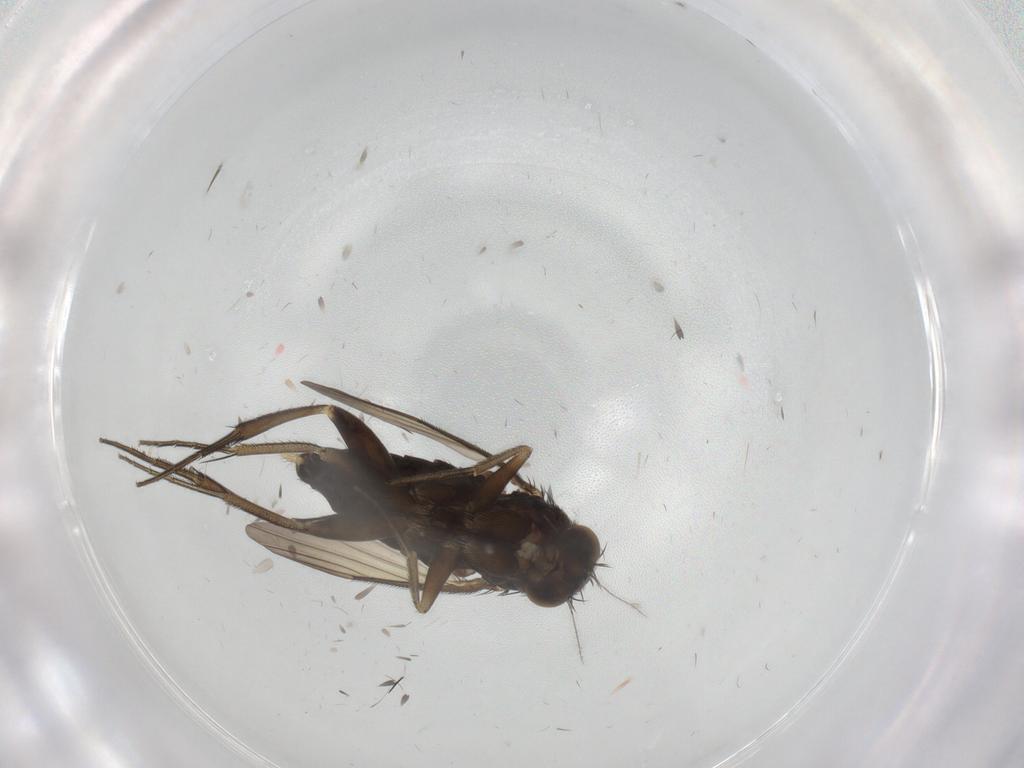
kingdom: Animalia
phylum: Arthropoda
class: Insecta
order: Diptera
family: Phoridae
